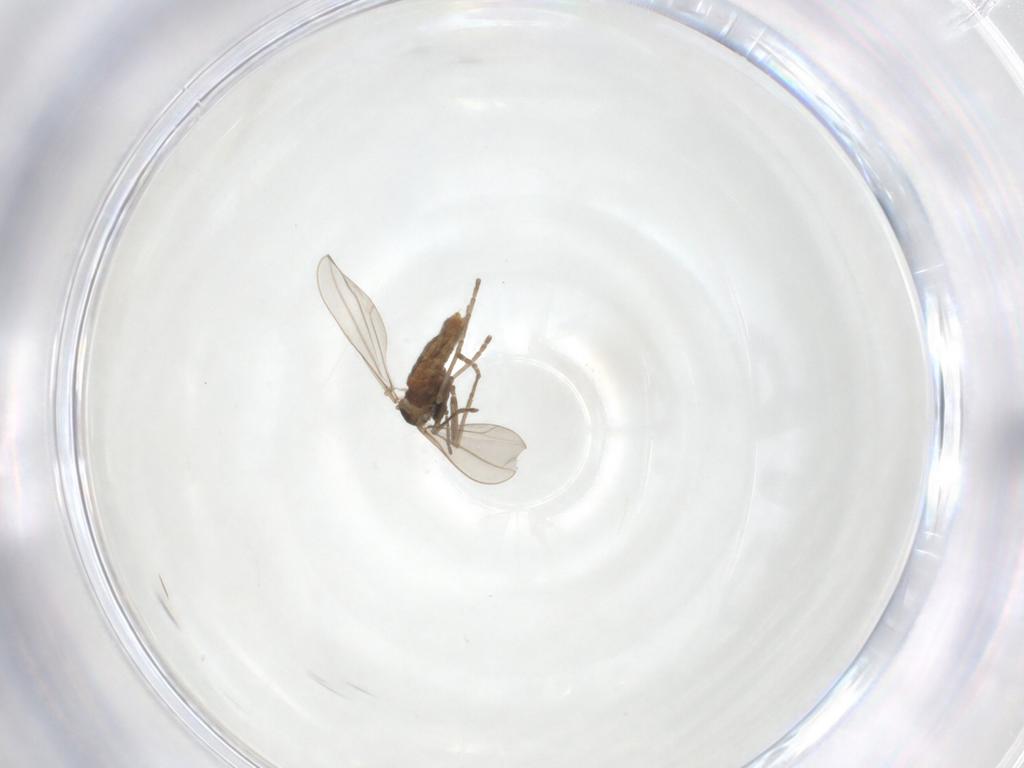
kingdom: Animalia
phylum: Arthropoda
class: Insecta
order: Diptera
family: Cecidomyiidae
